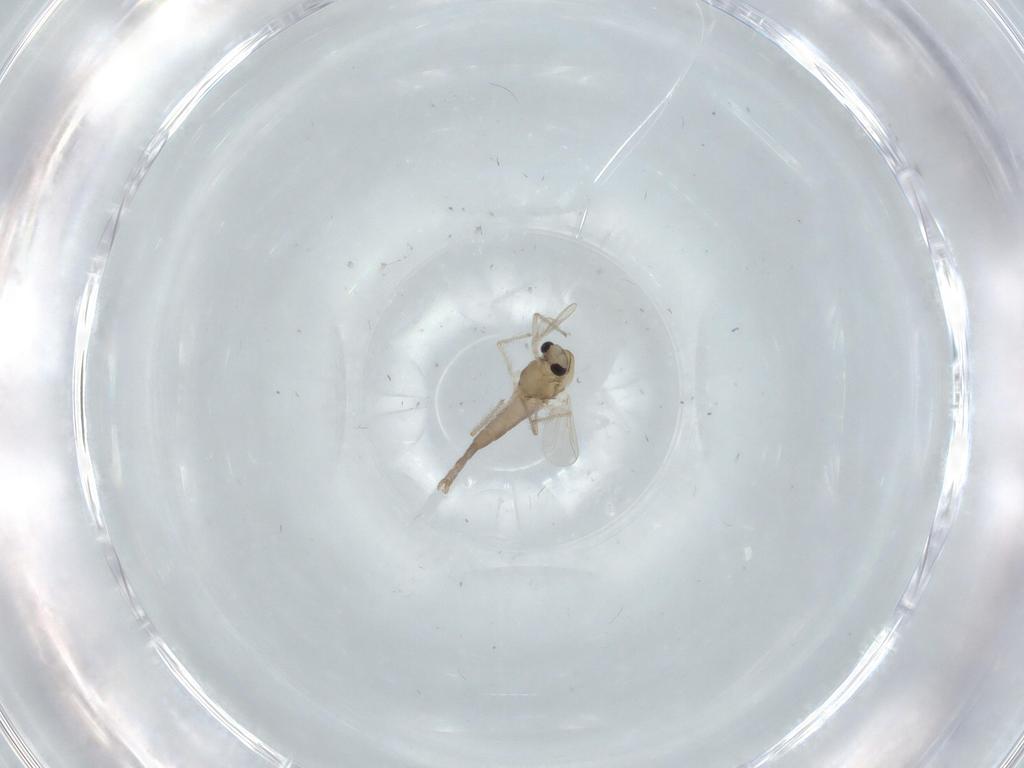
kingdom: Animalia
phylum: Arthropoda
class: Insecta
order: Diptera
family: Chironomidae
